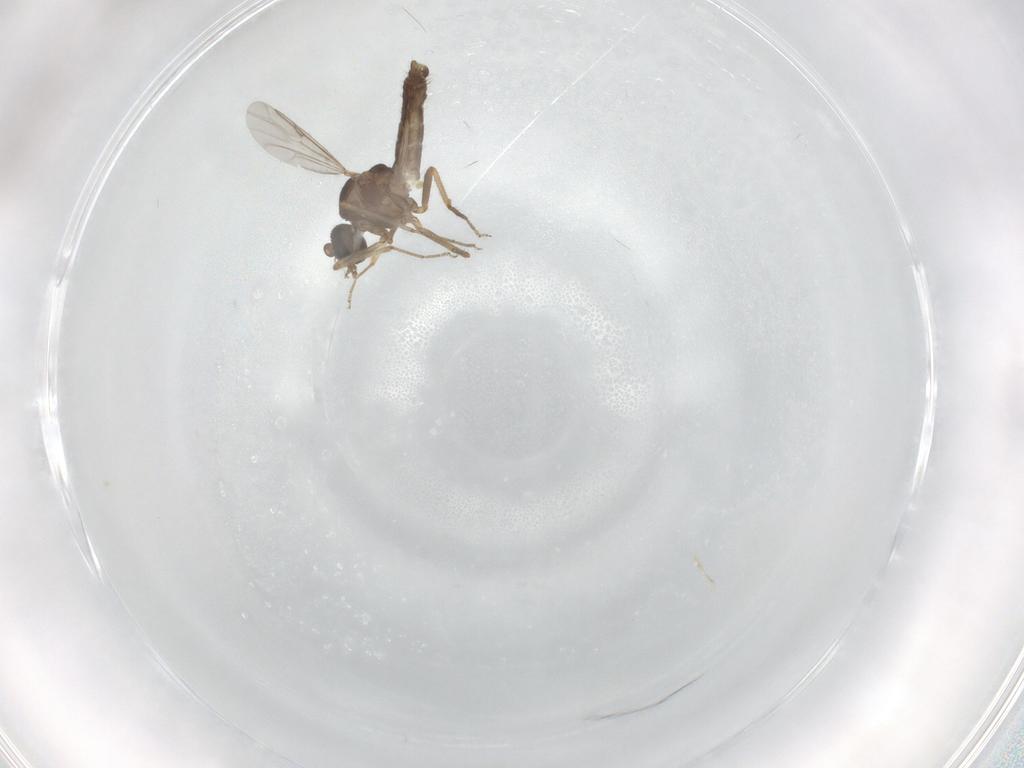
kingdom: Animalia
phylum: Arthropoda
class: Insecta
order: Diptera
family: Ceratopogonidae
